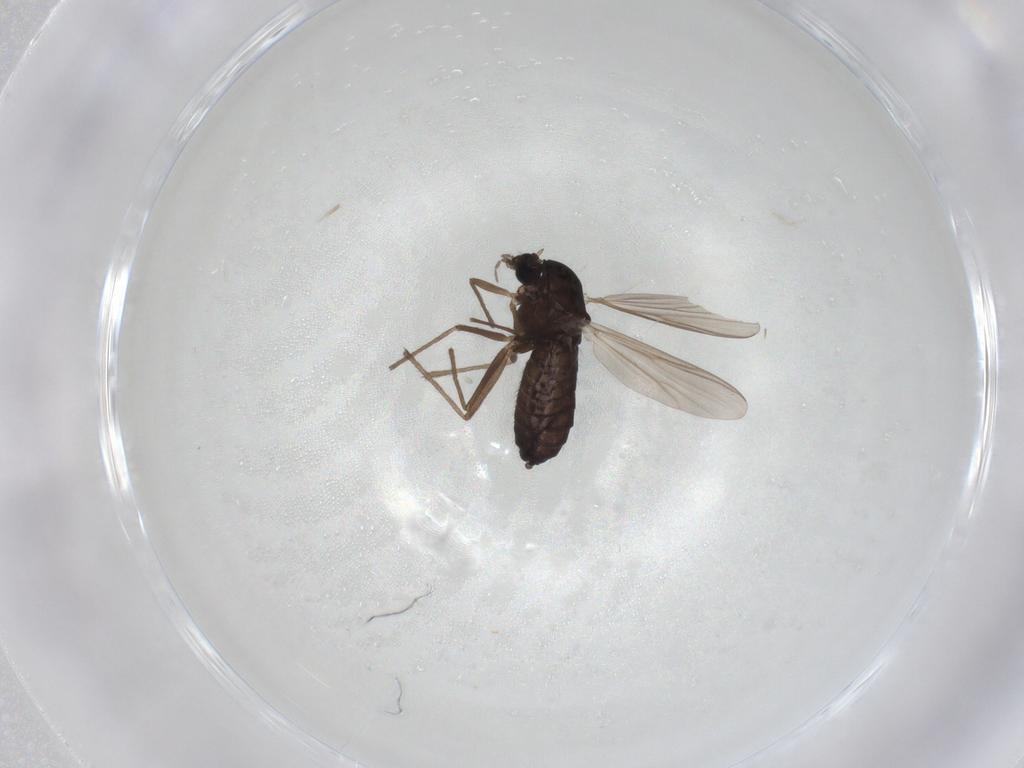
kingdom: Animalia
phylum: Arthropoda
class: Insecta
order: Diptera
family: Chironomidae
